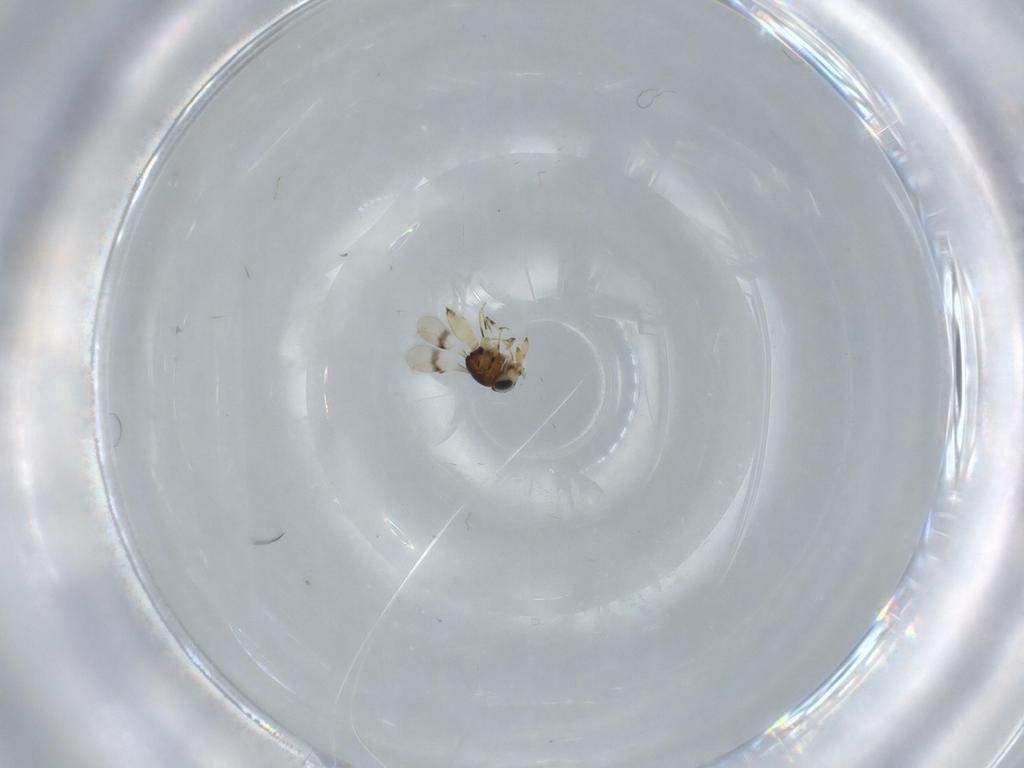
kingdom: Animalia
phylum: Arthropoda
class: Insecta
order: Hymenoptera
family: Scelionidae
